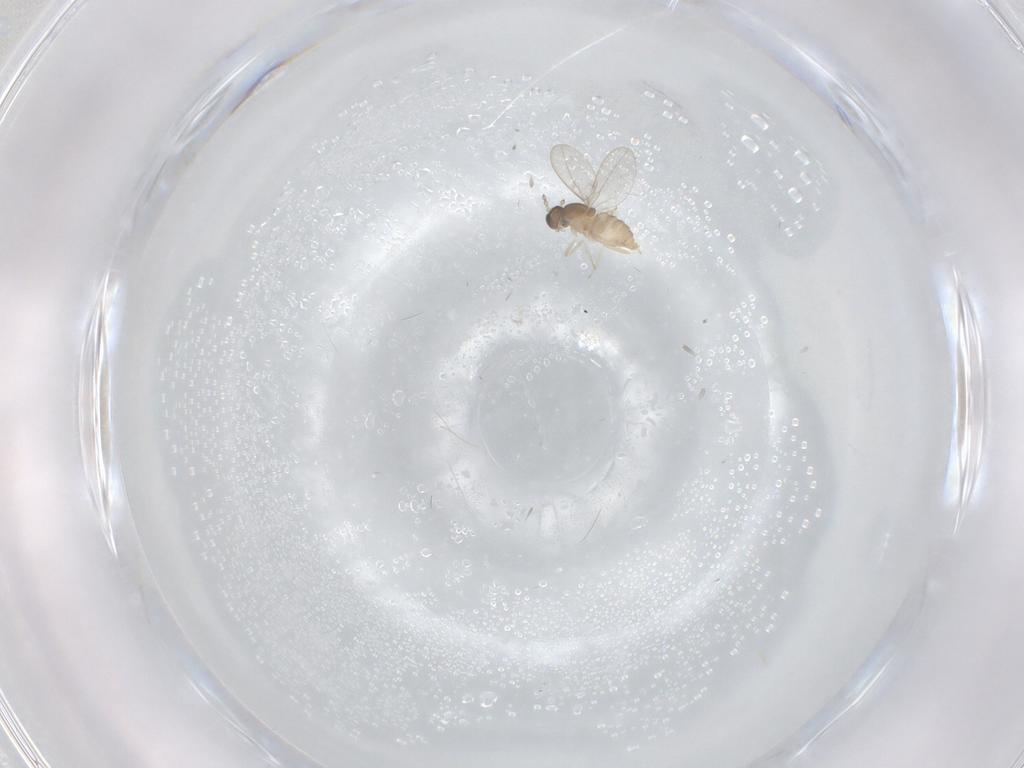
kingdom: Animalia
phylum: Arthropoda
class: Insecta
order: Diptera
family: Cecidomyiidae
